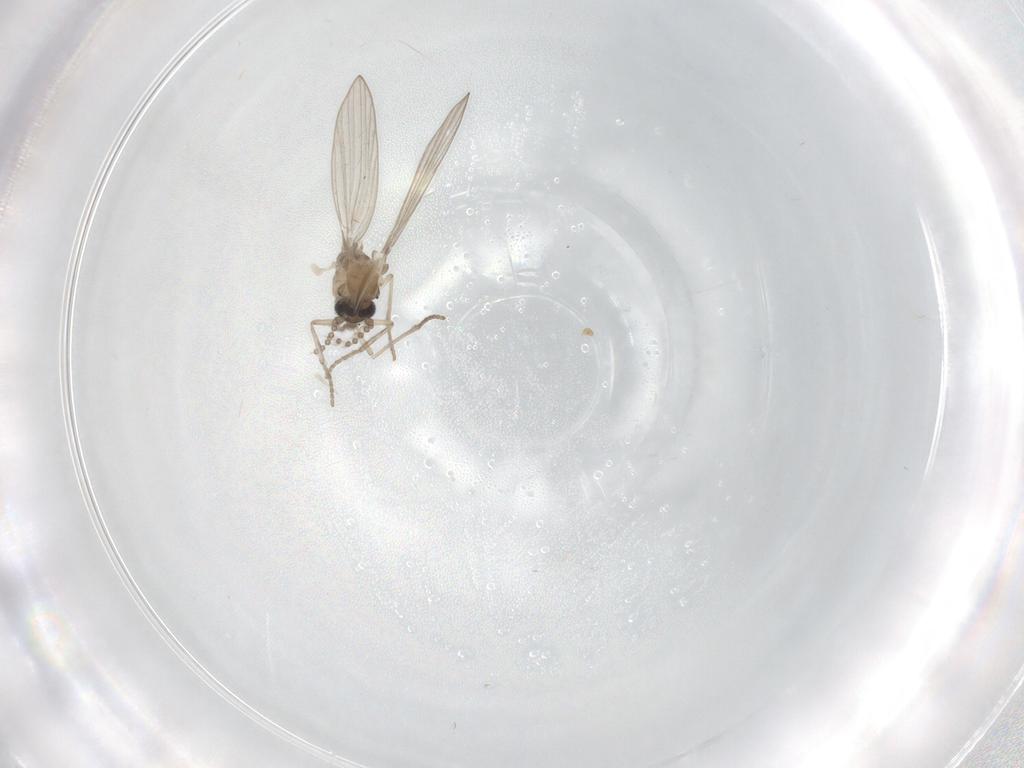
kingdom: Animalia
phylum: Arthropoda
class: Insecta
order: Diptera
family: Psychodidae
